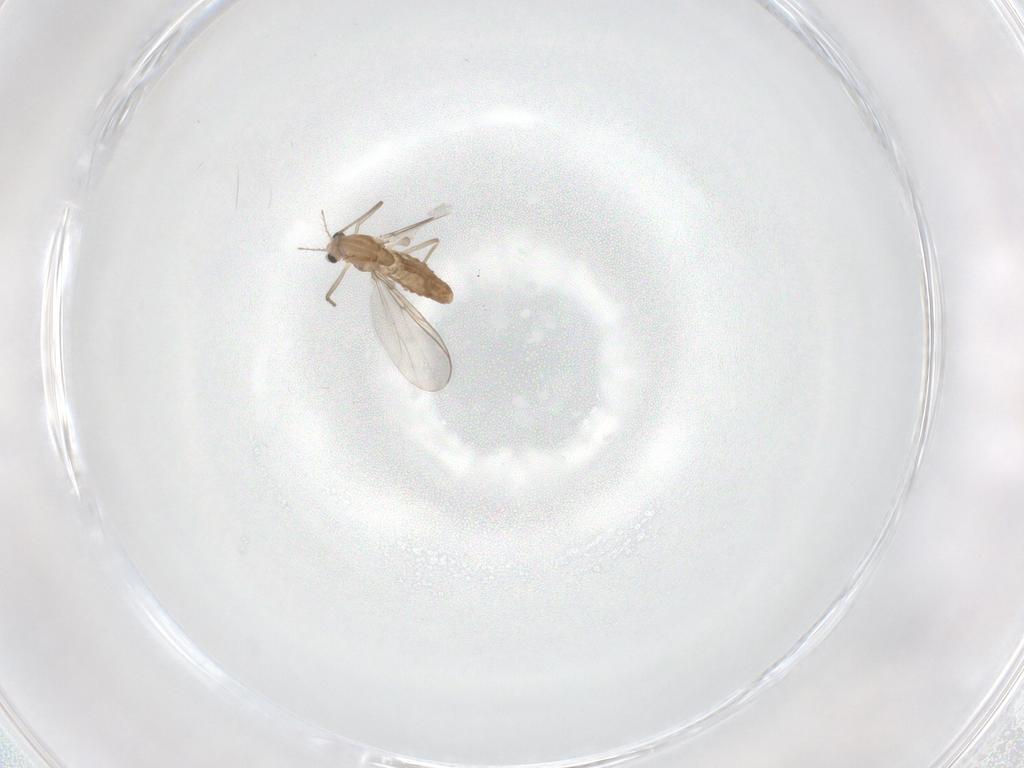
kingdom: Animalia
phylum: Arthropoda
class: Insecta
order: Diptera
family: Chironomidae
